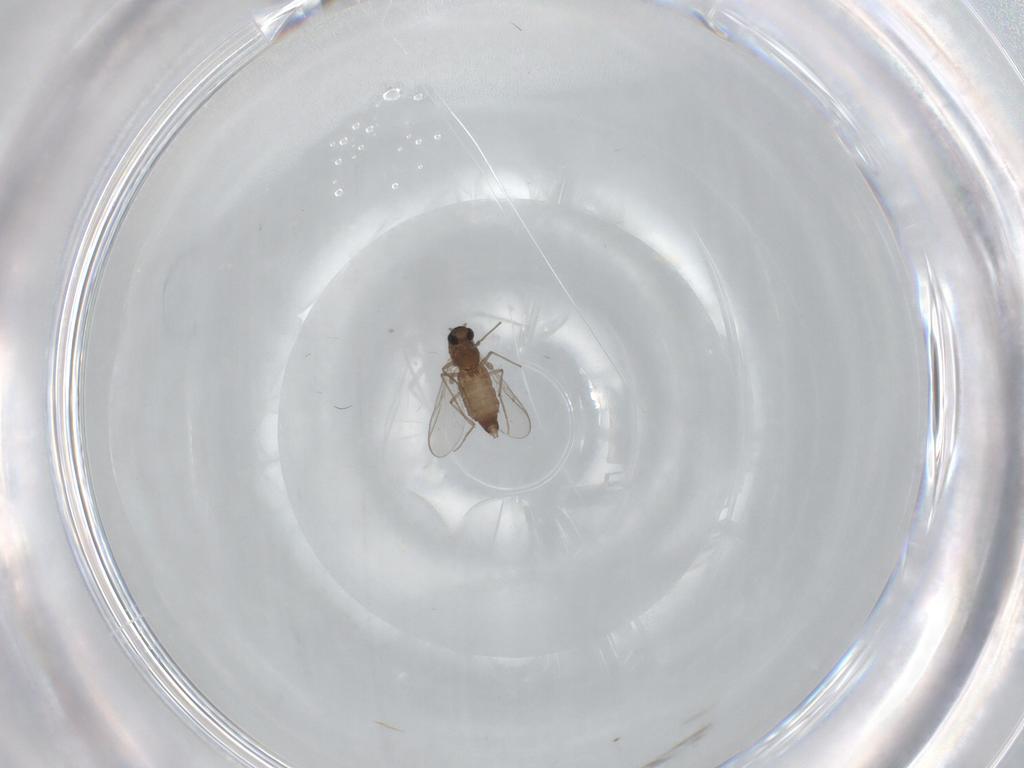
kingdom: Animalia
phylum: Arthropoda
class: Insecta
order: Diptera
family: Chironomidae
